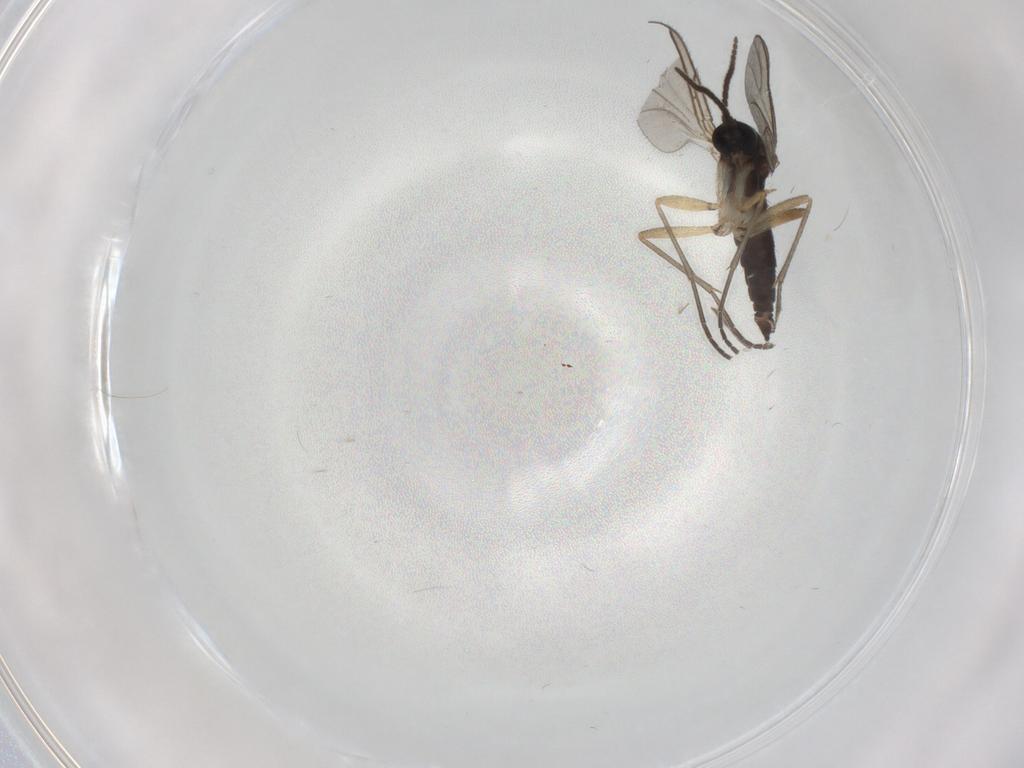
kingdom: Animalia
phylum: Arthropoda
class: Insecta
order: Diptera
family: Sciaridae
